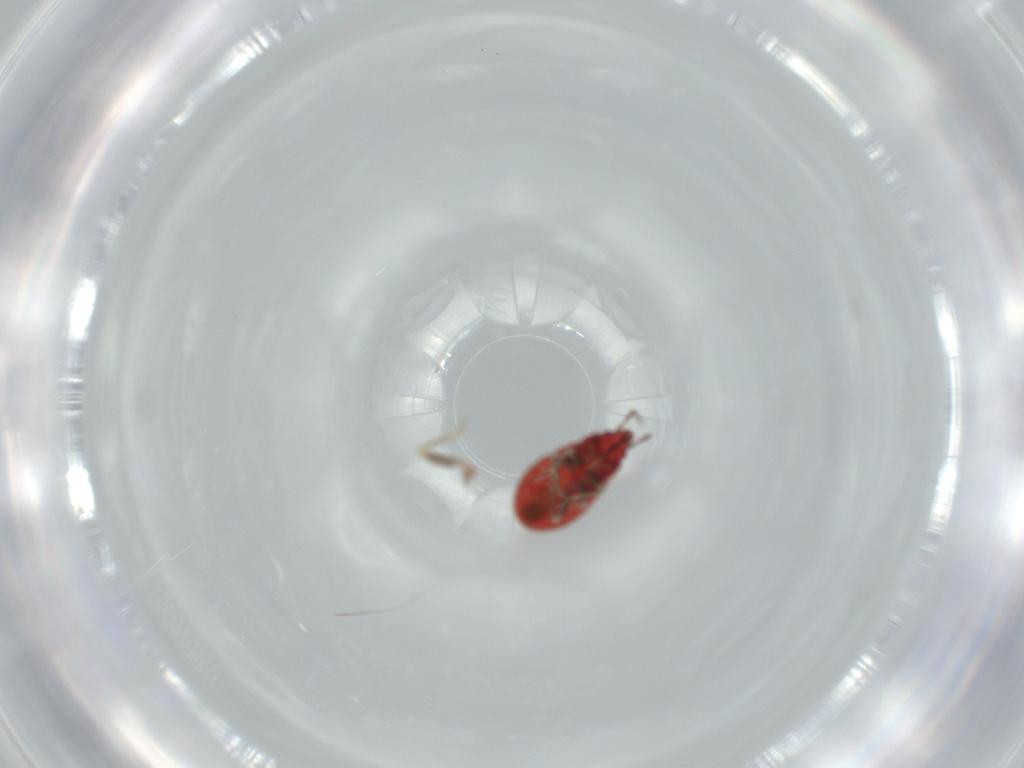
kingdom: Animalia
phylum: Arthropoda
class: Insecta
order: Hemiptera
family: Anthocoridae
